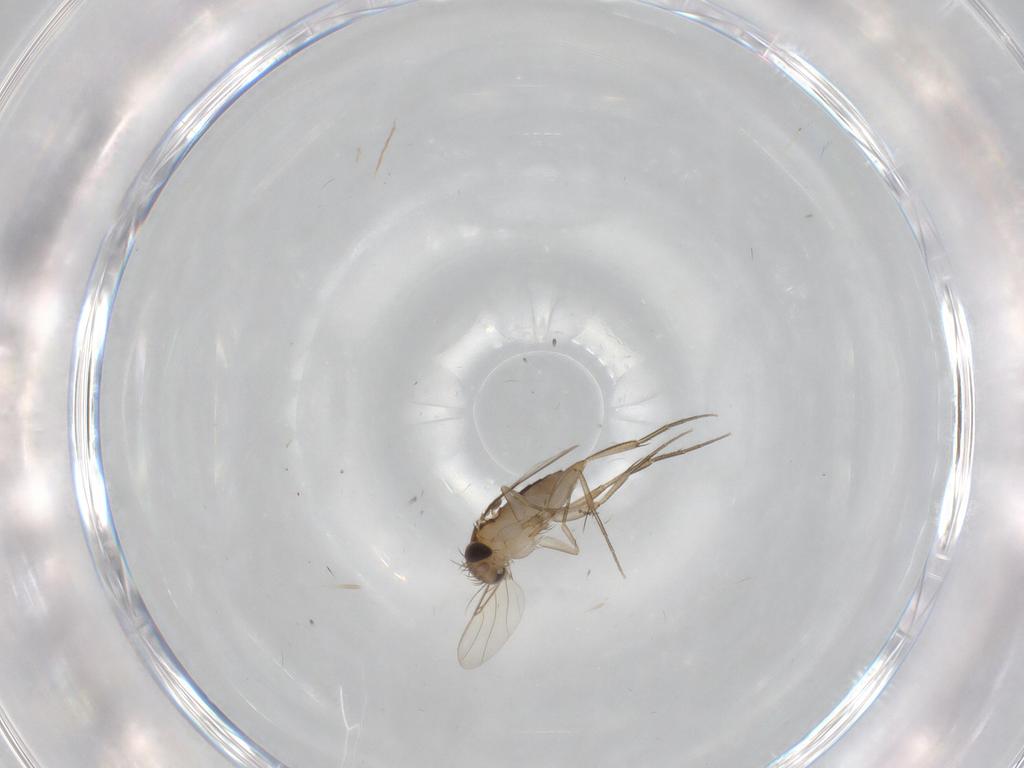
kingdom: Animalia
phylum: Arthropoda
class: Insecta
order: Diptera
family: Phoridae
